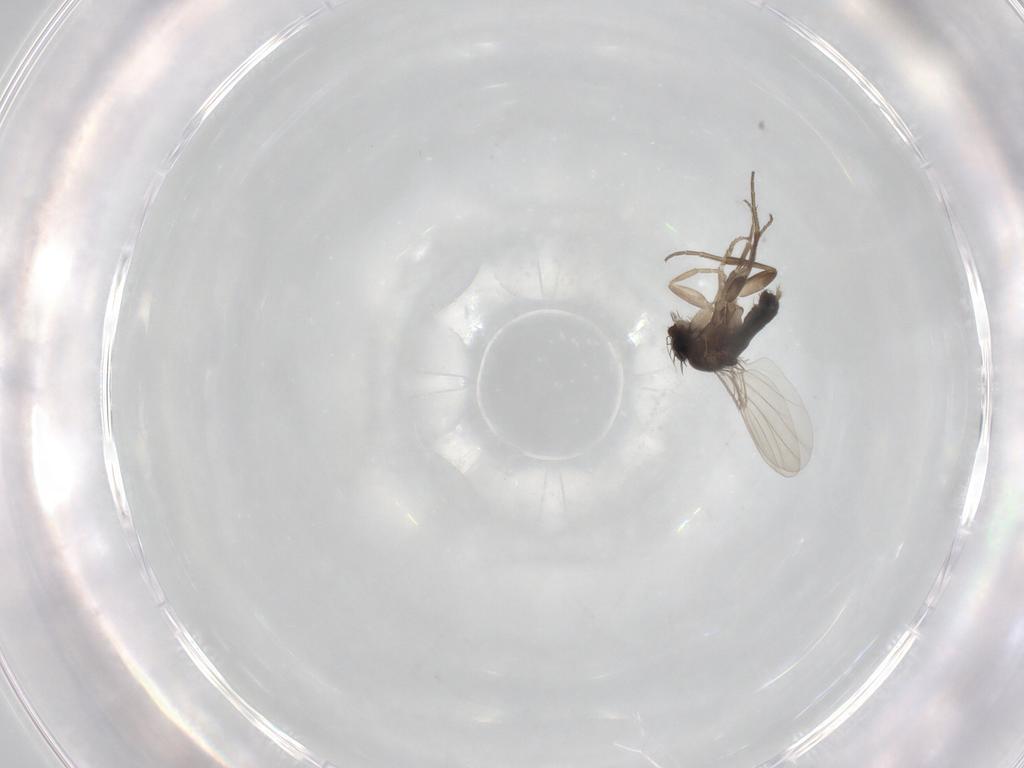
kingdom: Animalia
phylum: Arthropoda
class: Insecta
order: Diptera
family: Phoridae
